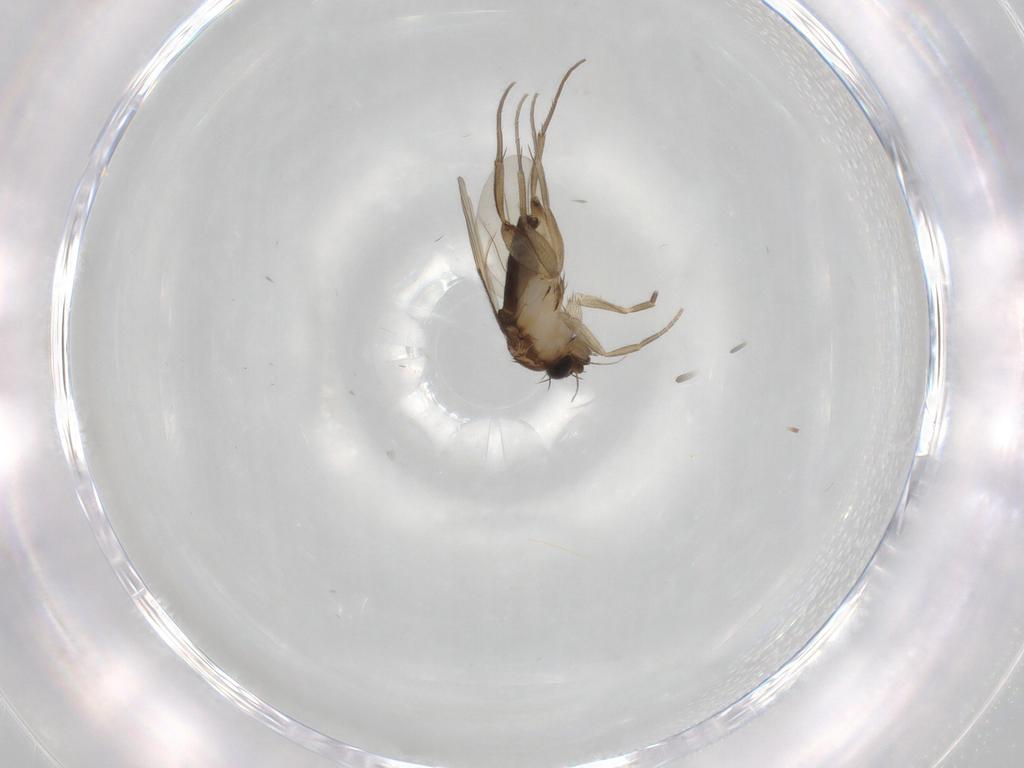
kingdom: Animalia
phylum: Arthropoda
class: Insecta
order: Diptera
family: Phoridae
